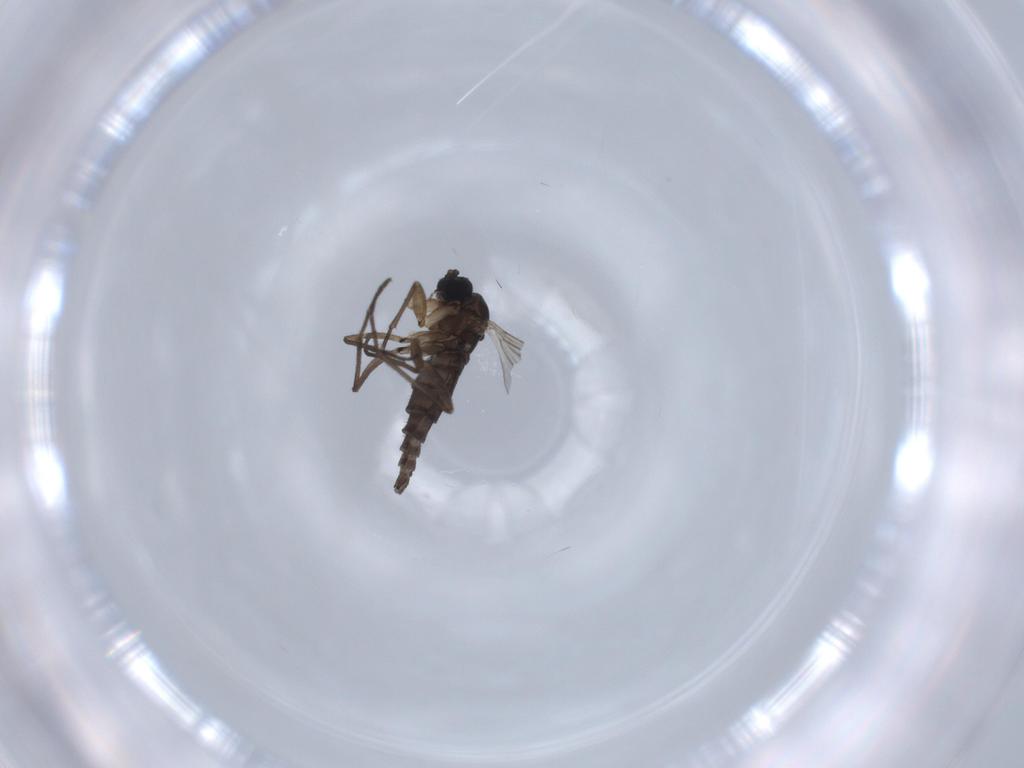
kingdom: Animalia
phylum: Arthropoda
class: Insecta
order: Diptera
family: Sciaridae
